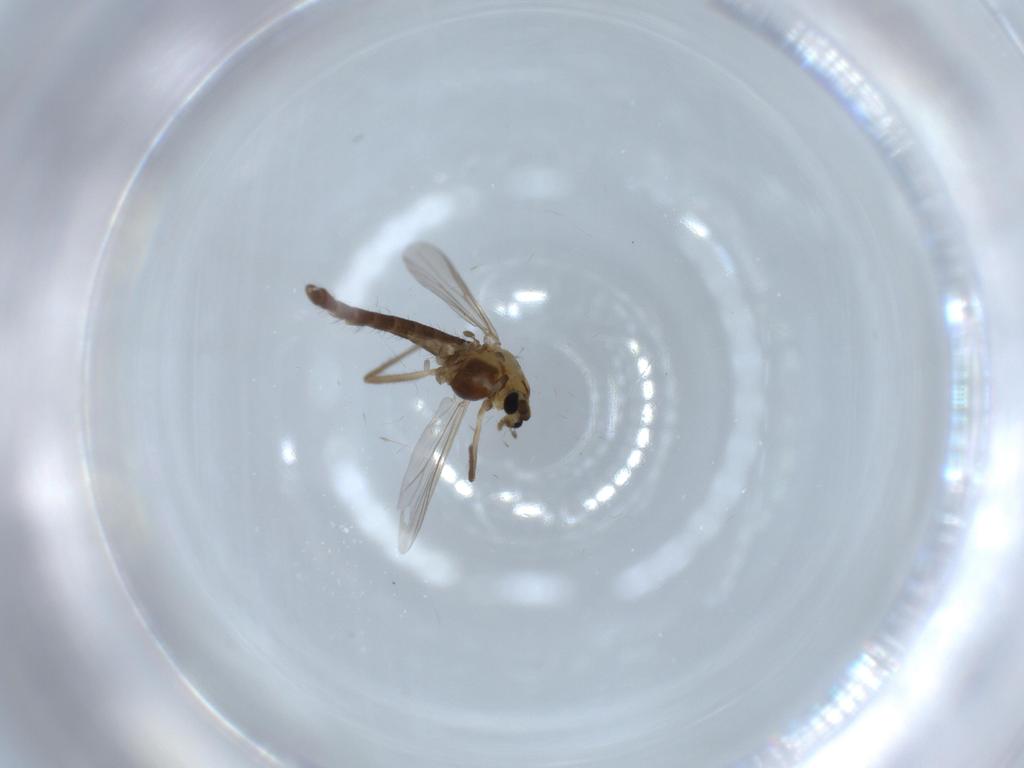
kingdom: Animalia
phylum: Arthropoda
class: Insecta
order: Diptera
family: Chironomidae
